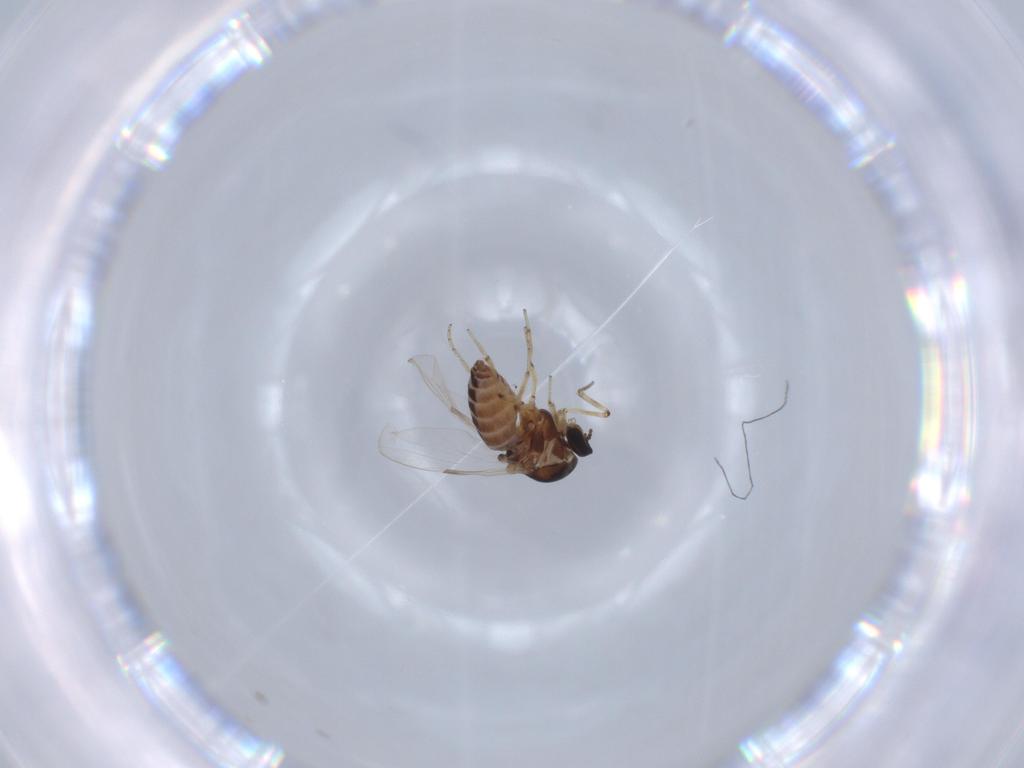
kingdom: Animalia
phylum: Arthropoda
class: Insecta
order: Diptera
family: Ceratopogonidae
